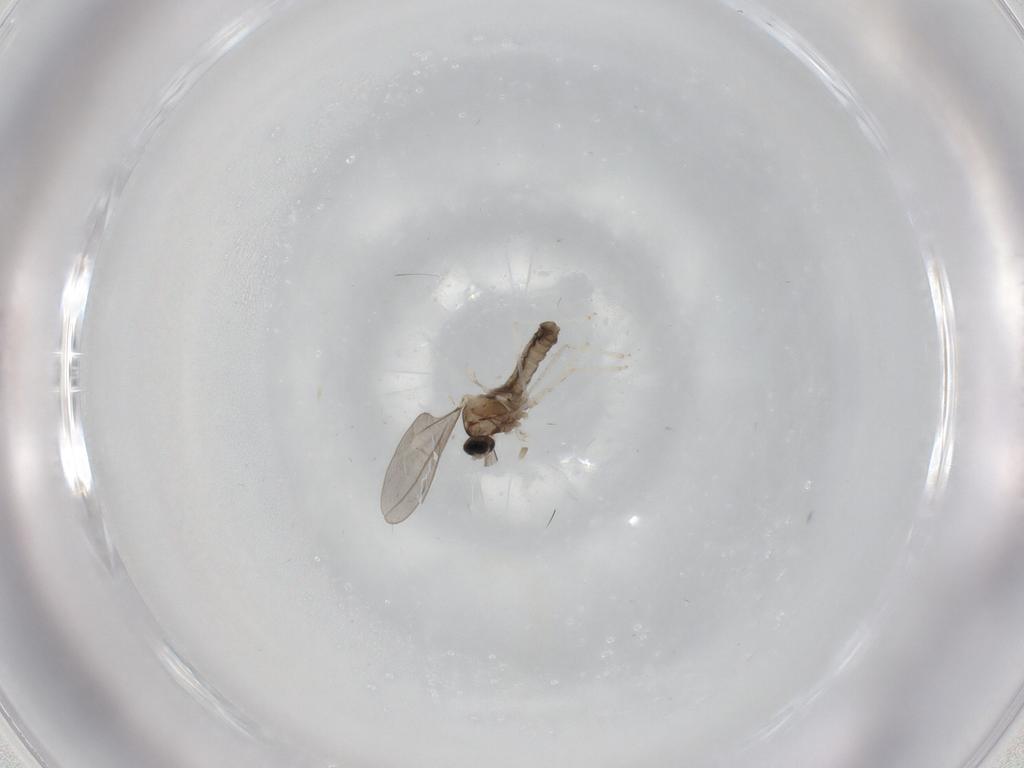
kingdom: Animalia
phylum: Arthropoda
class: Insecta
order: Diptera
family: Cecidomyiidae
